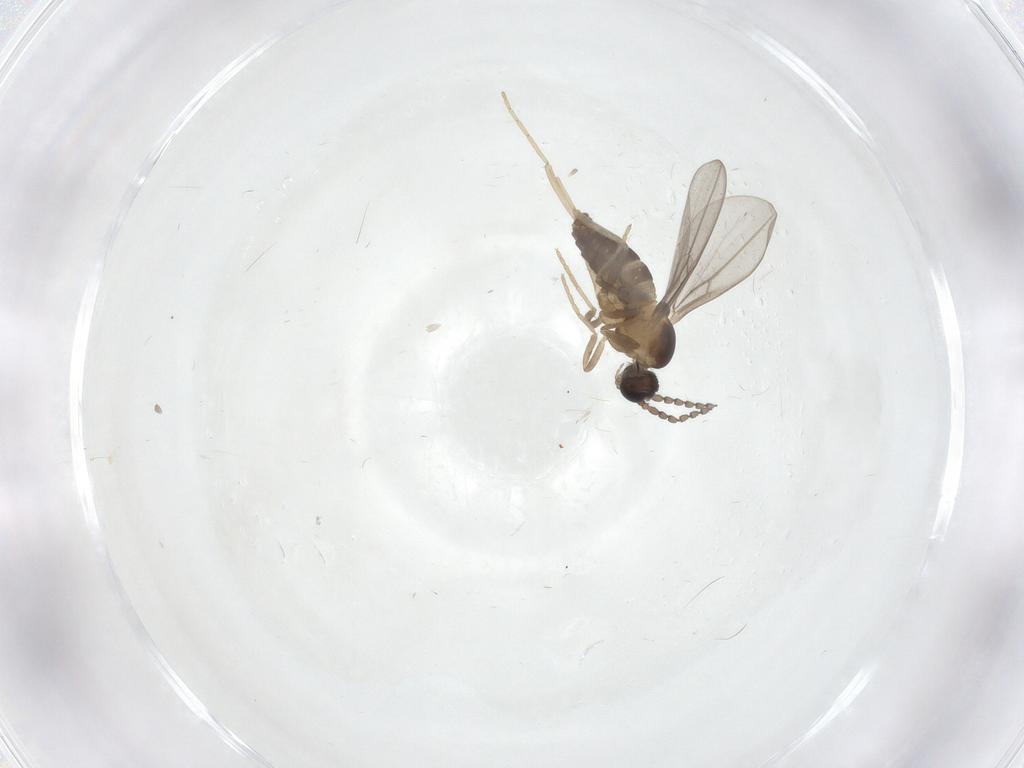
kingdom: Animalia
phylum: Arthropoda
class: Insecta
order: Diptera
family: Cecidomyiidae
